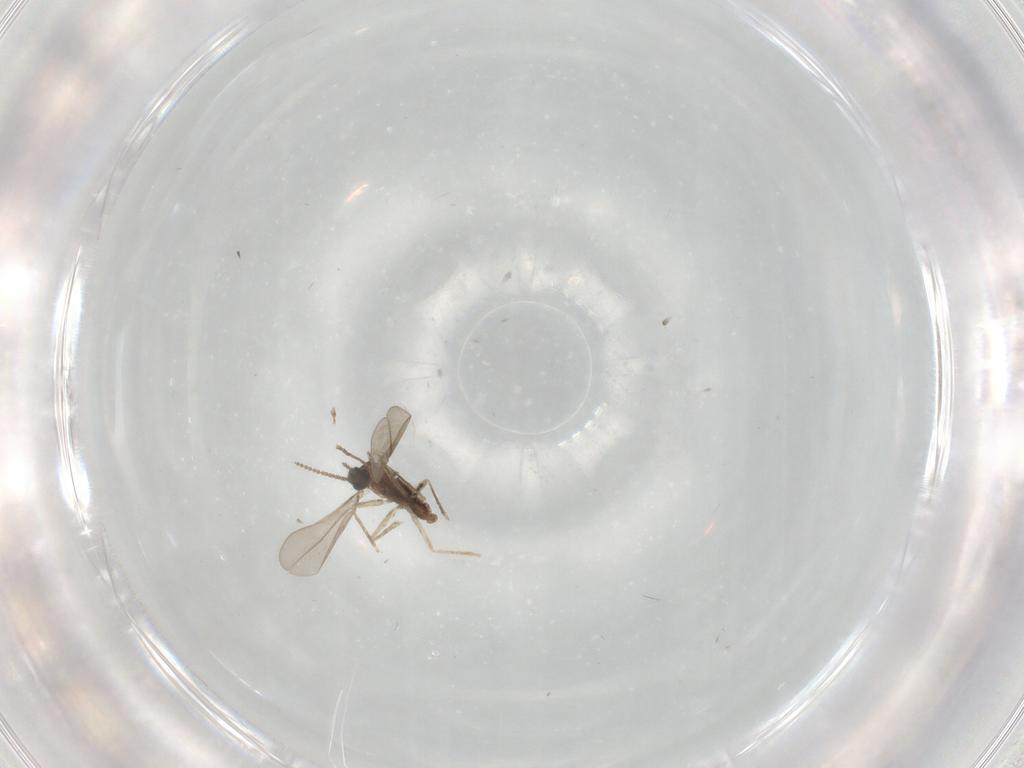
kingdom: Animalia
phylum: Arthropoda
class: Insecta
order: Diptera
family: Cecidomyiidae
